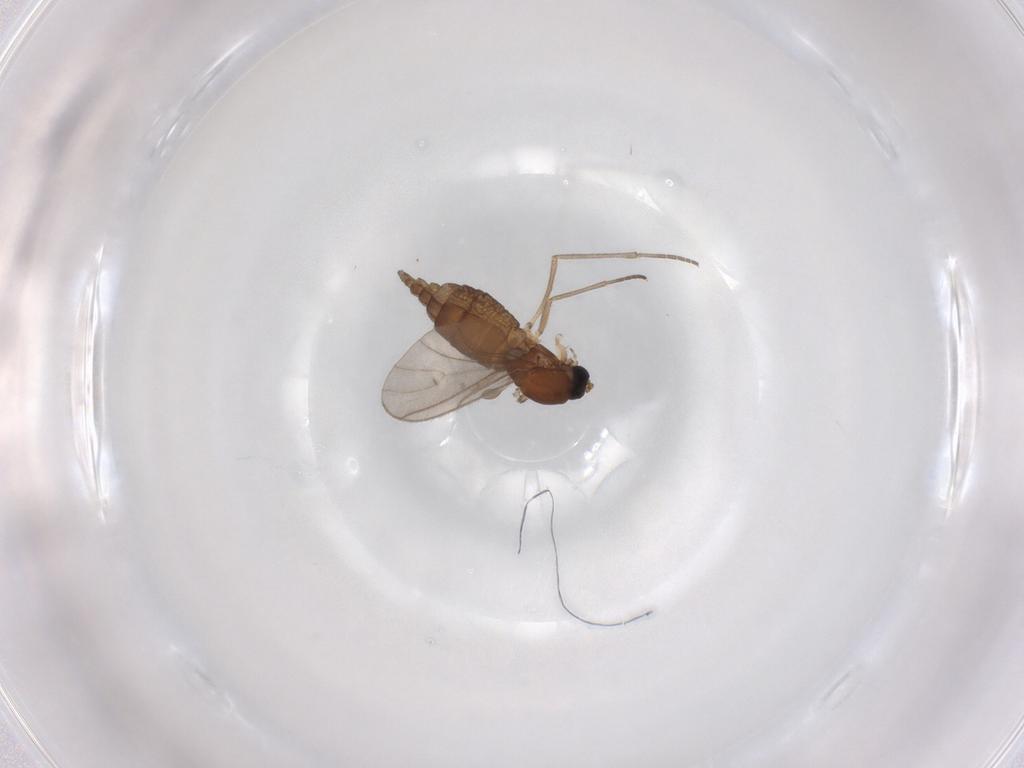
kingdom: Animalia
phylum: Arthropoda
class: Insecta
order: Diptera
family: Sciaridae
